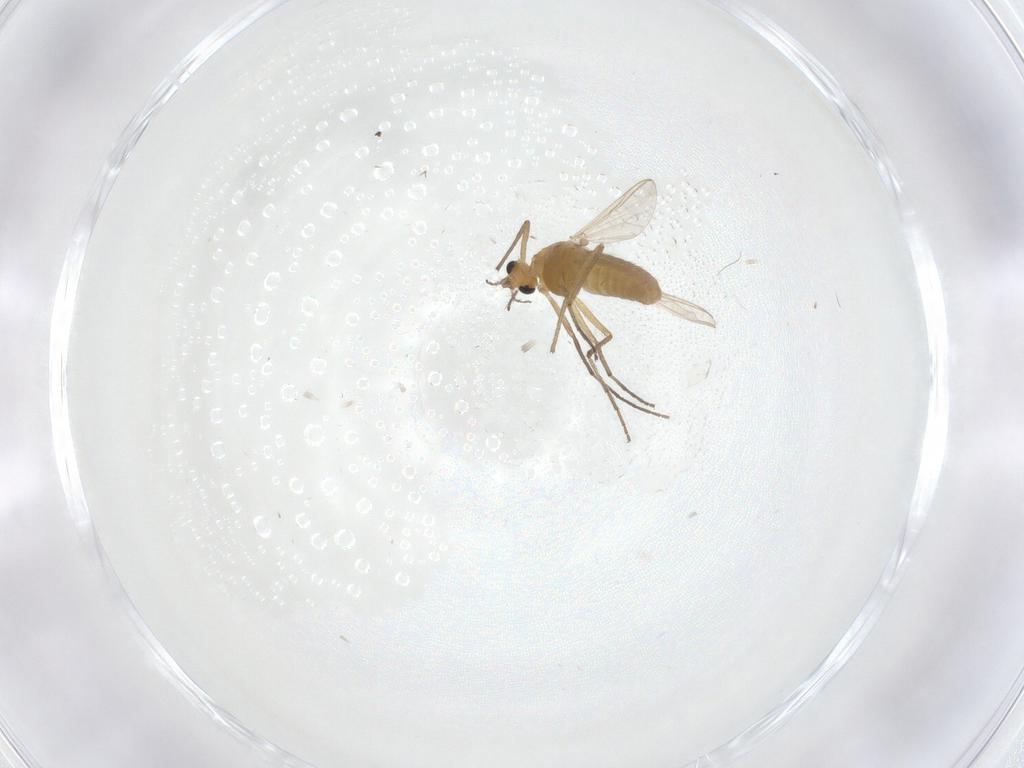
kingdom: Animalia
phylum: Arthropoda
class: Insecta
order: Diptera
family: Chironomidae
